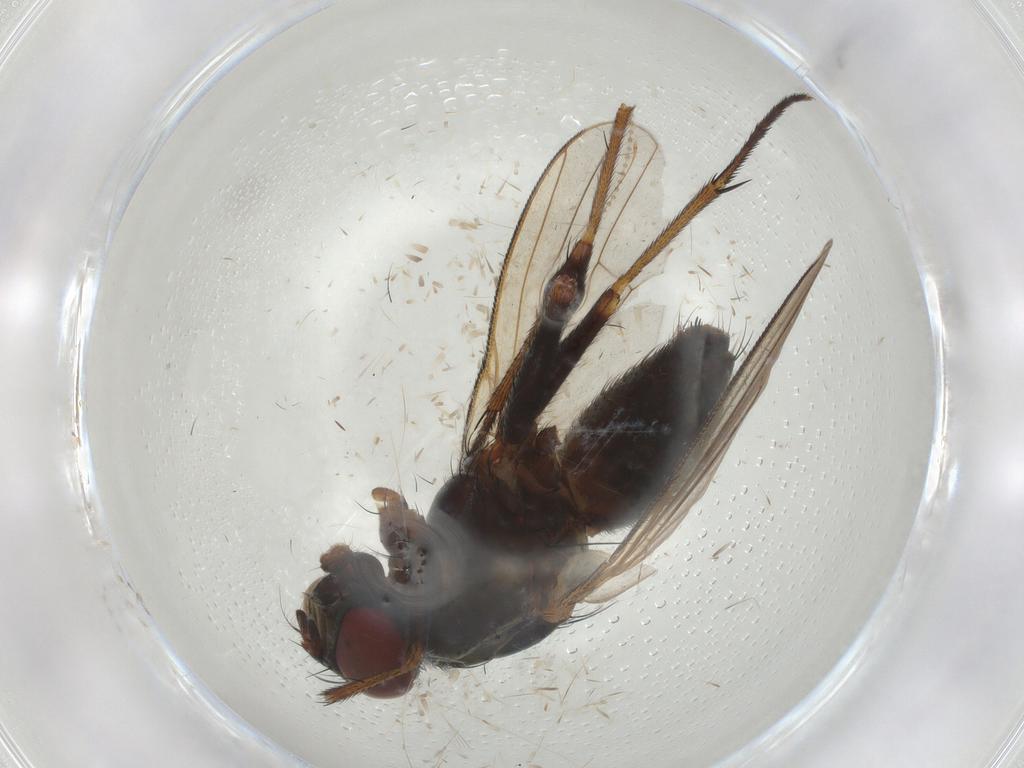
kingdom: Animalia
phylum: Arthropoda
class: Insecta
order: Diptera
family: Muscidae
